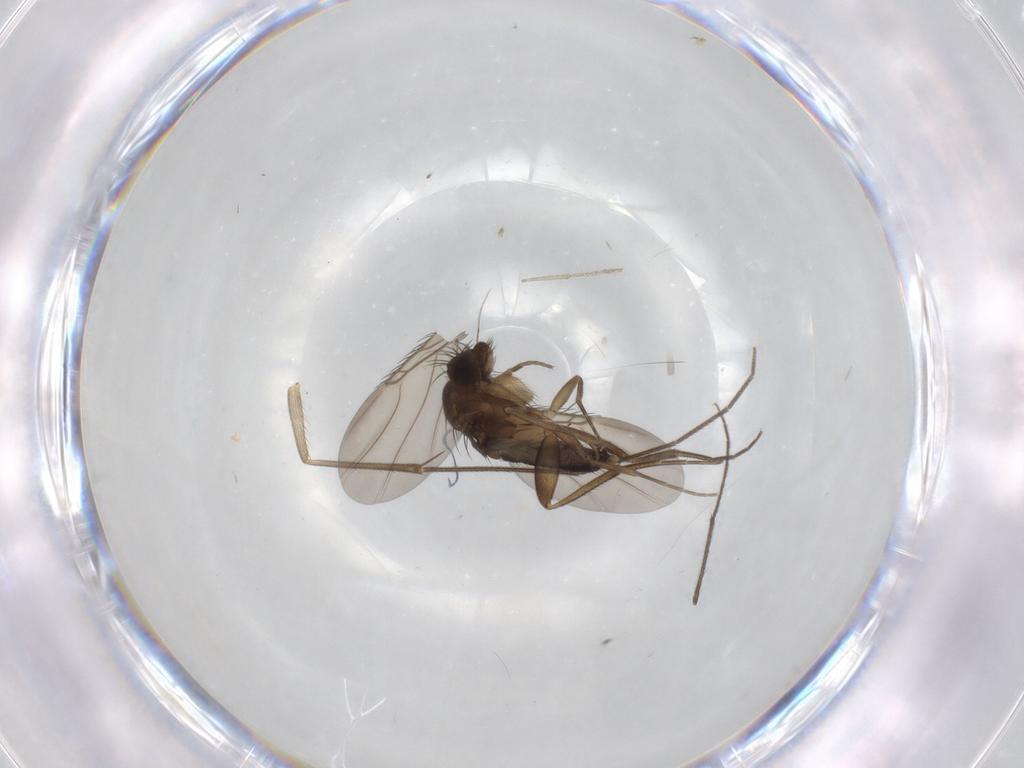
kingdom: Animalia
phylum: Arthropoda
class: Insecta
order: Diptera
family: Phoridae
